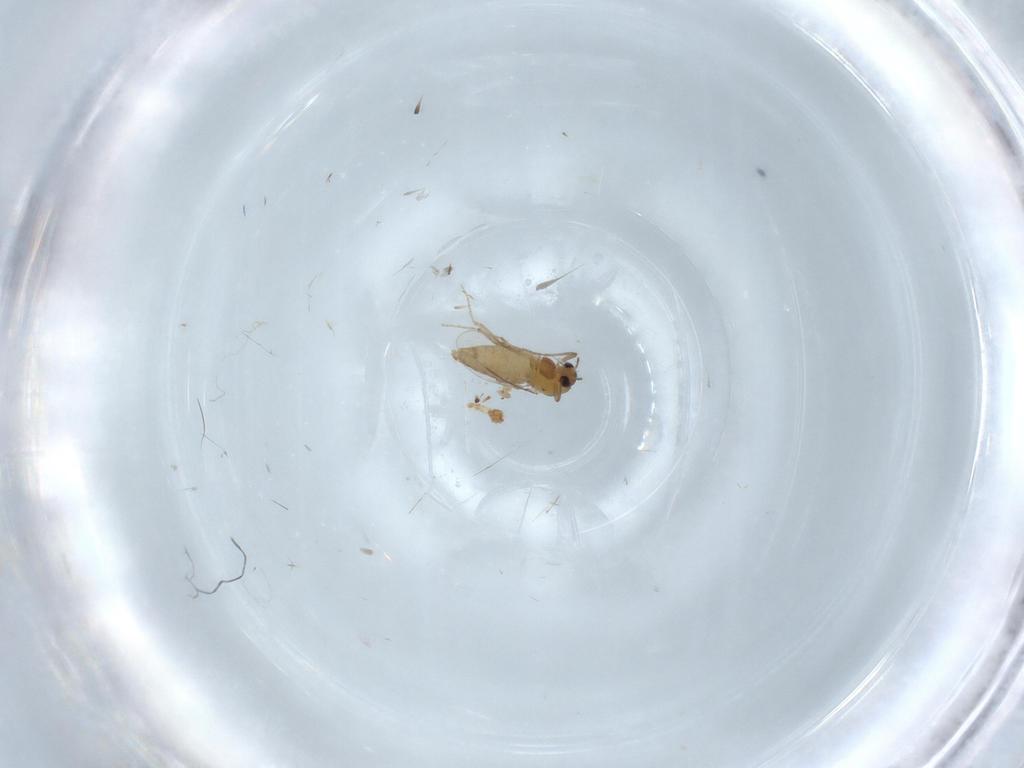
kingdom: Animalia
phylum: Arthropoda
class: Insecta
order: Diptera
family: Chironomidae
